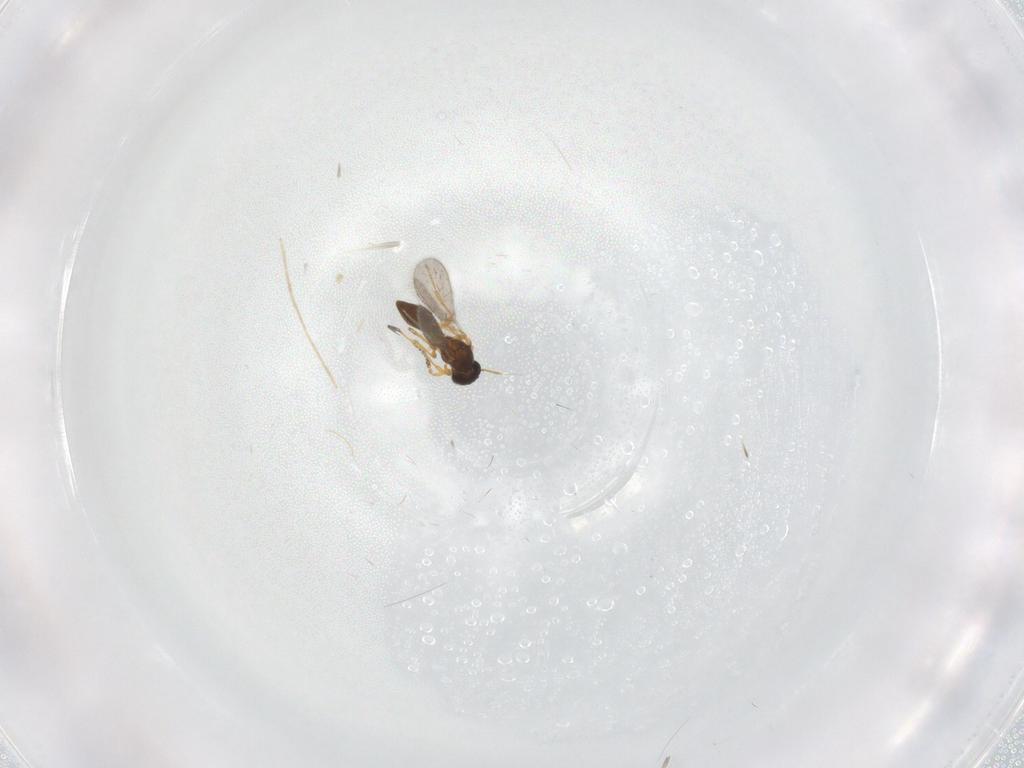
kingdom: Animalia
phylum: Arthropoda
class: Insecta
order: Hymenoptera
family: Platygastridae
